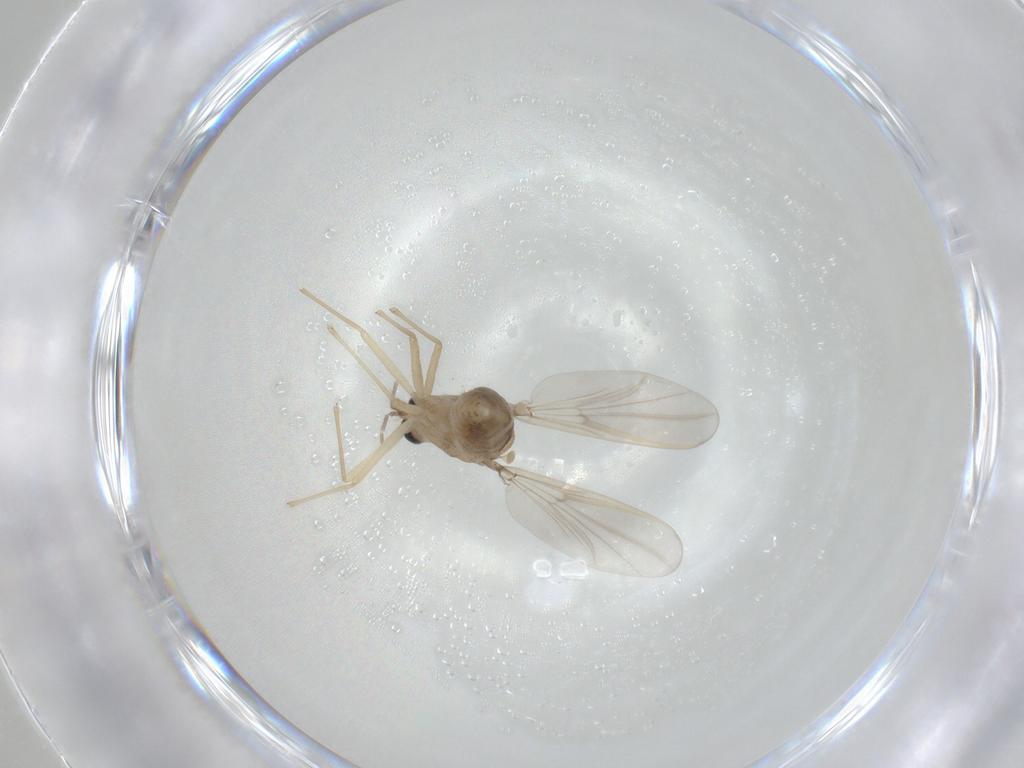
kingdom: Animalia
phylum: Arthropoda
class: Insecta
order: Diptera
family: Chironomidae
